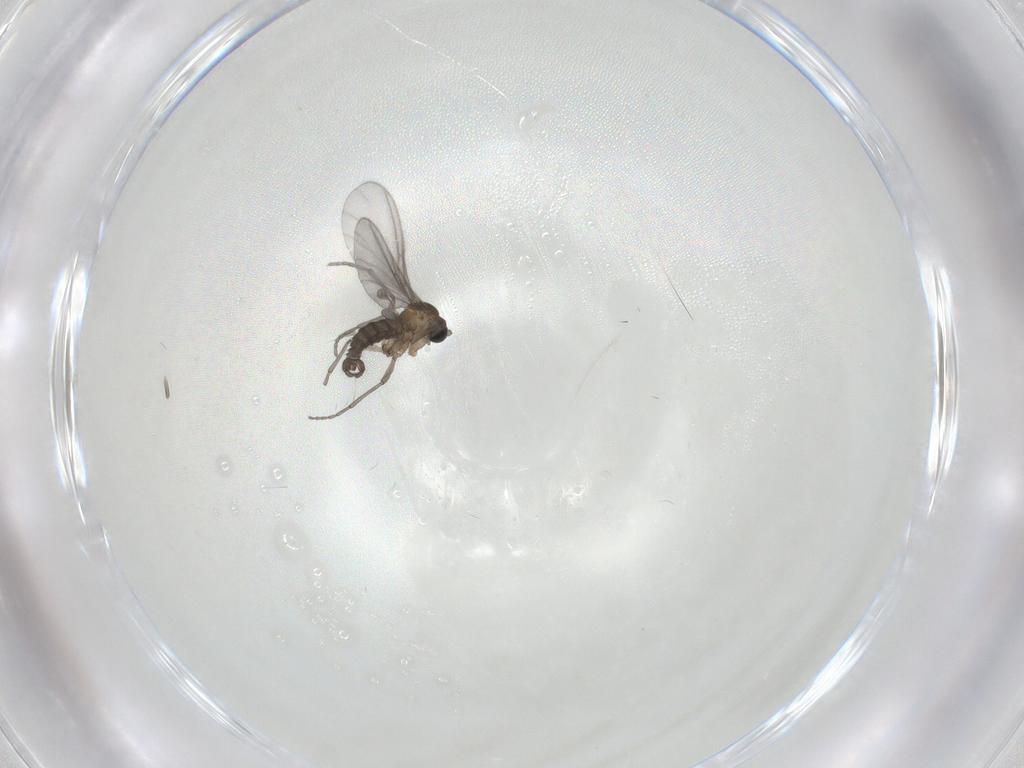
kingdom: Animalia
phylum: Arthropoda
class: Insecta
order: Diptera
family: Sciaridae
